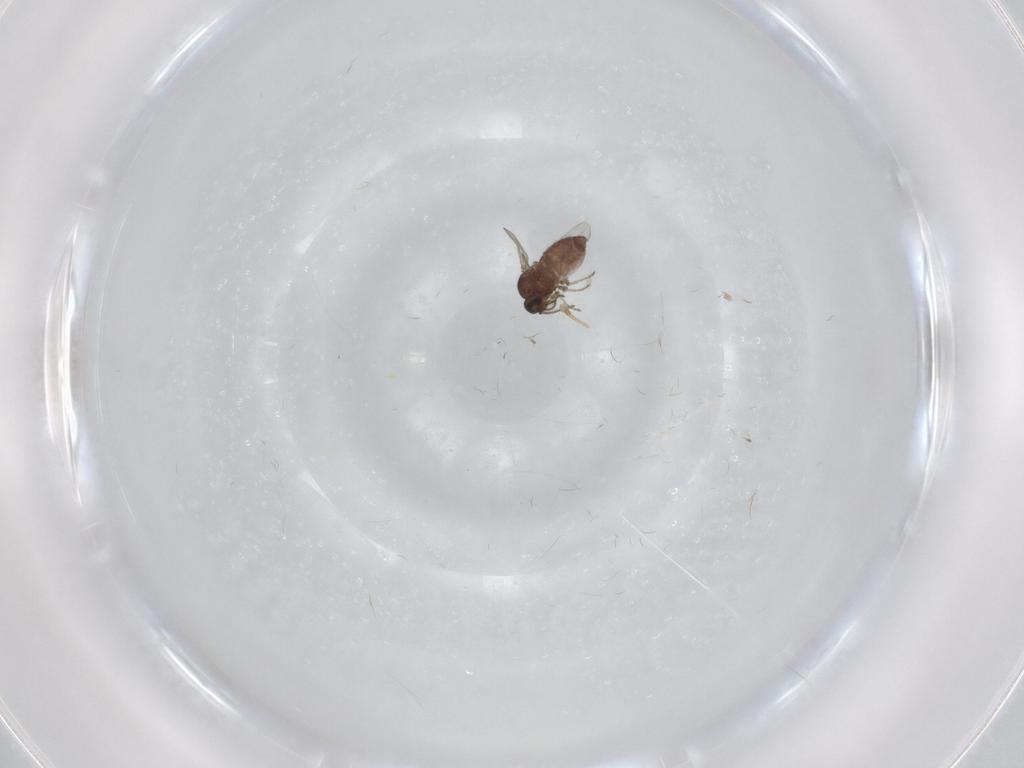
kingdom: Animalia
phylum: Arthropoda
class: Insecta
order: Diptera
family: Ceratopogonidae
